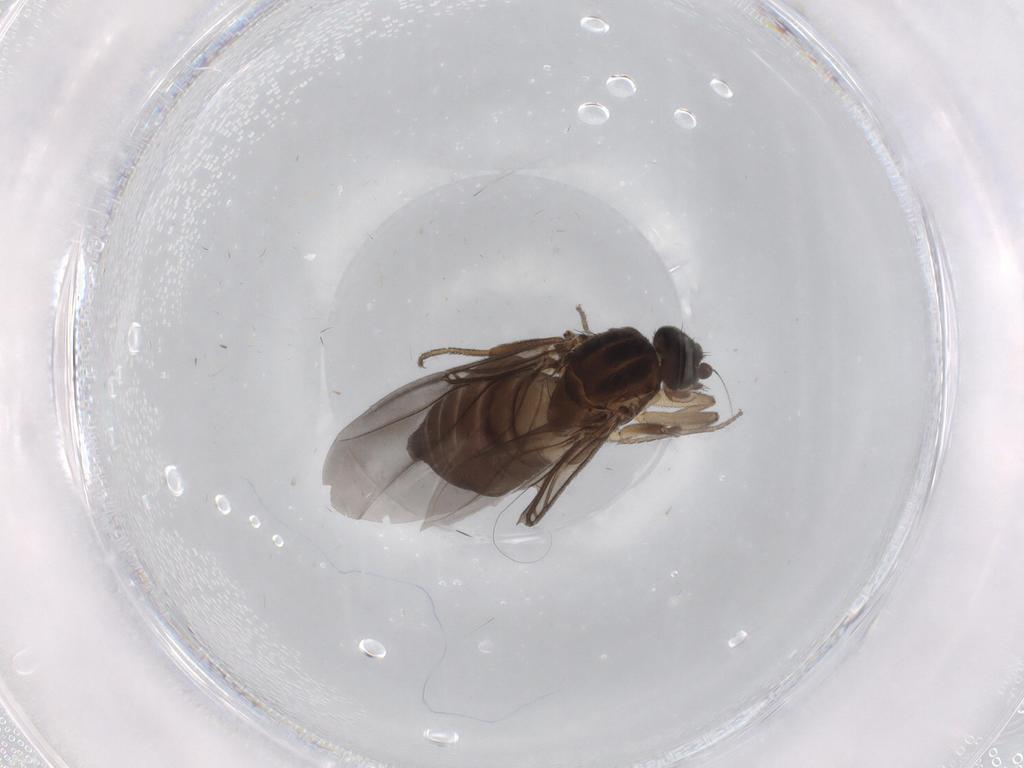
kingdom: Animalia
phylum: Arthropoda
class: Insecta
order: Diptera
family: Phoridae
